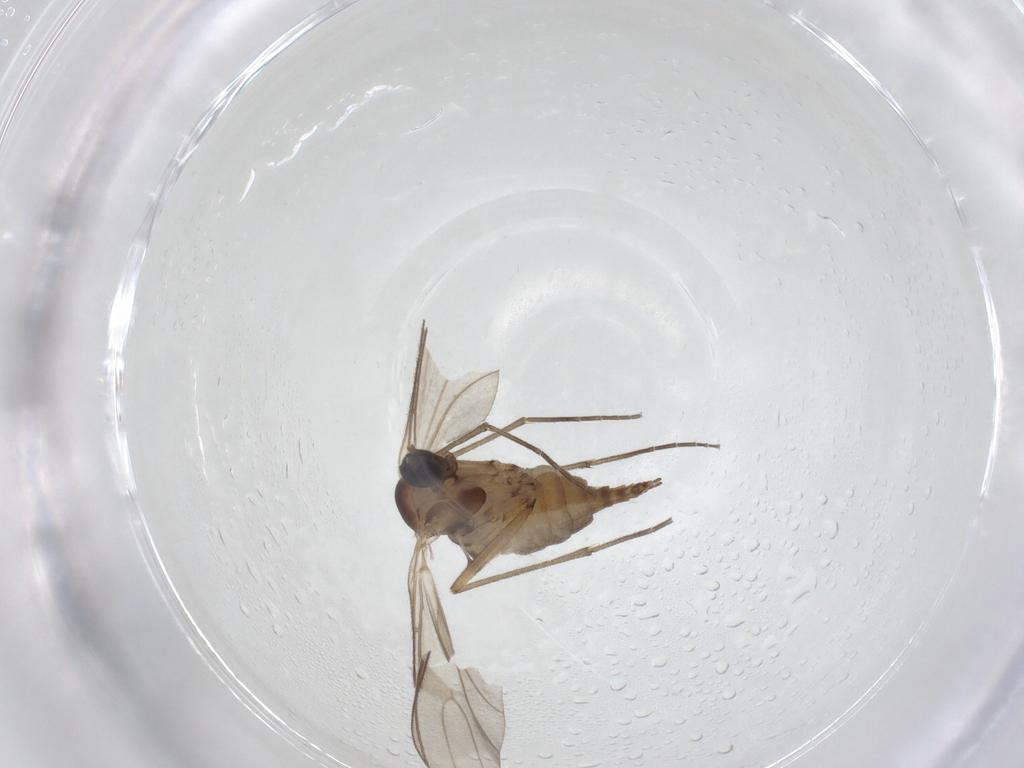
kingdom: Animalia
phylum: Arthropoda
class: Insecta
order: Diptera
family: Sciaridae
